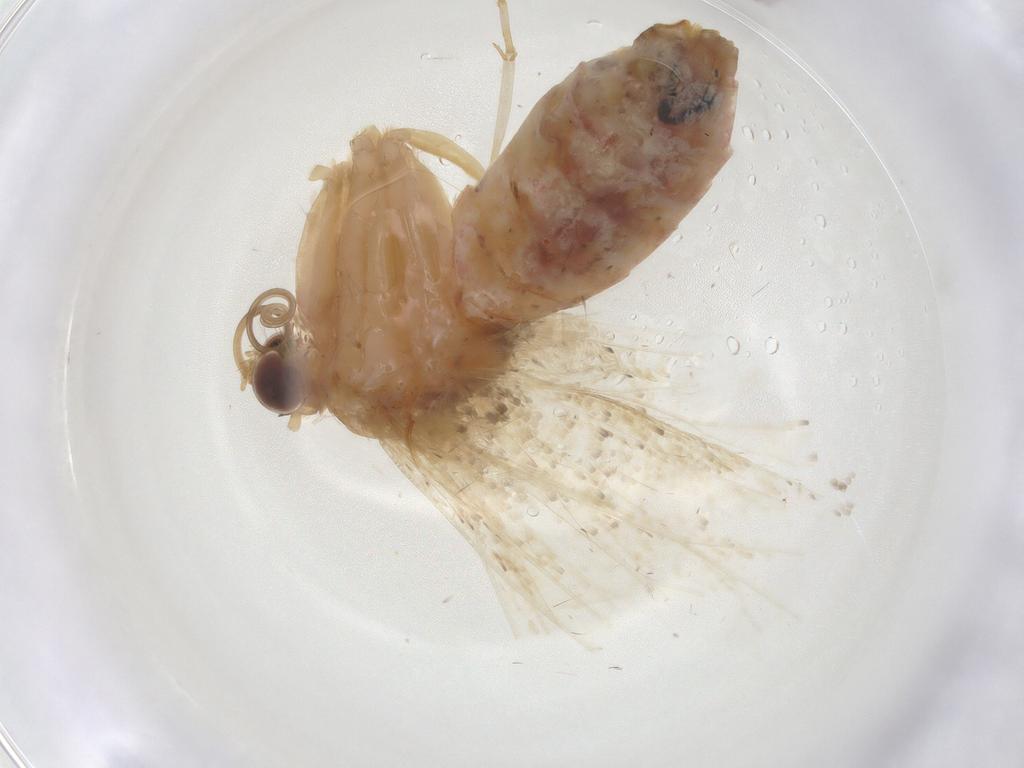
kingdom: Animalia
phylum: Arthropoda
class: Insecta
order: Lepidoptera
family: Geometridae
